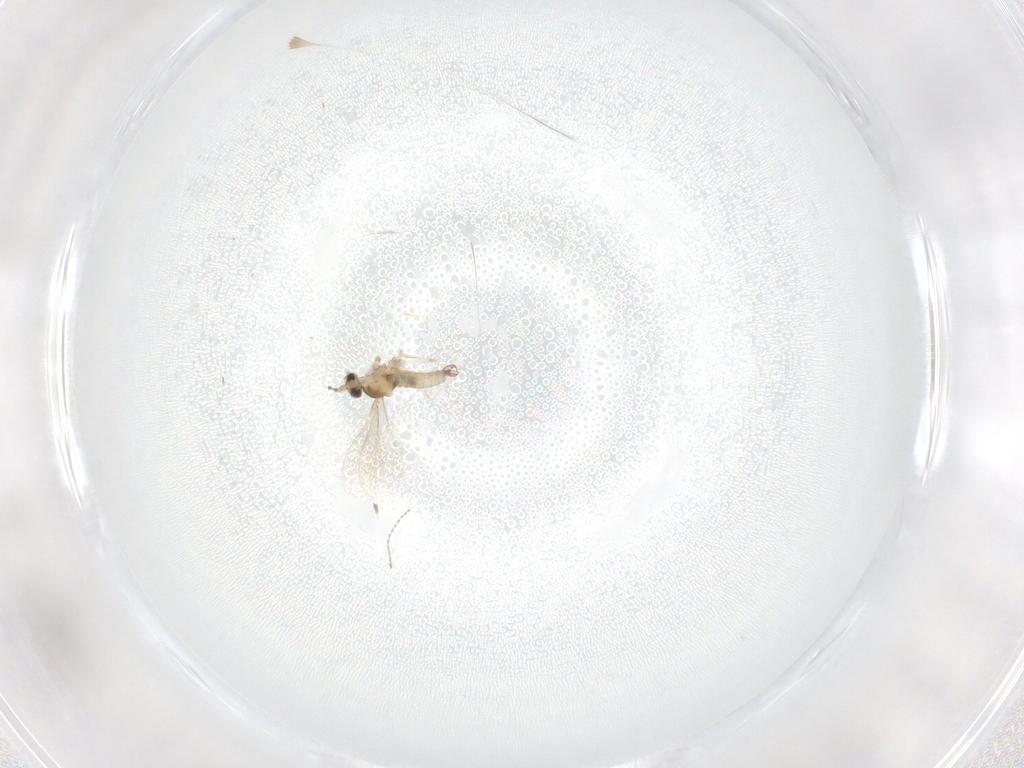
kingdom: Animalia
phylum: Arthropoda
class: Insecta
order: Diptera
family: Cecidomyiidae
